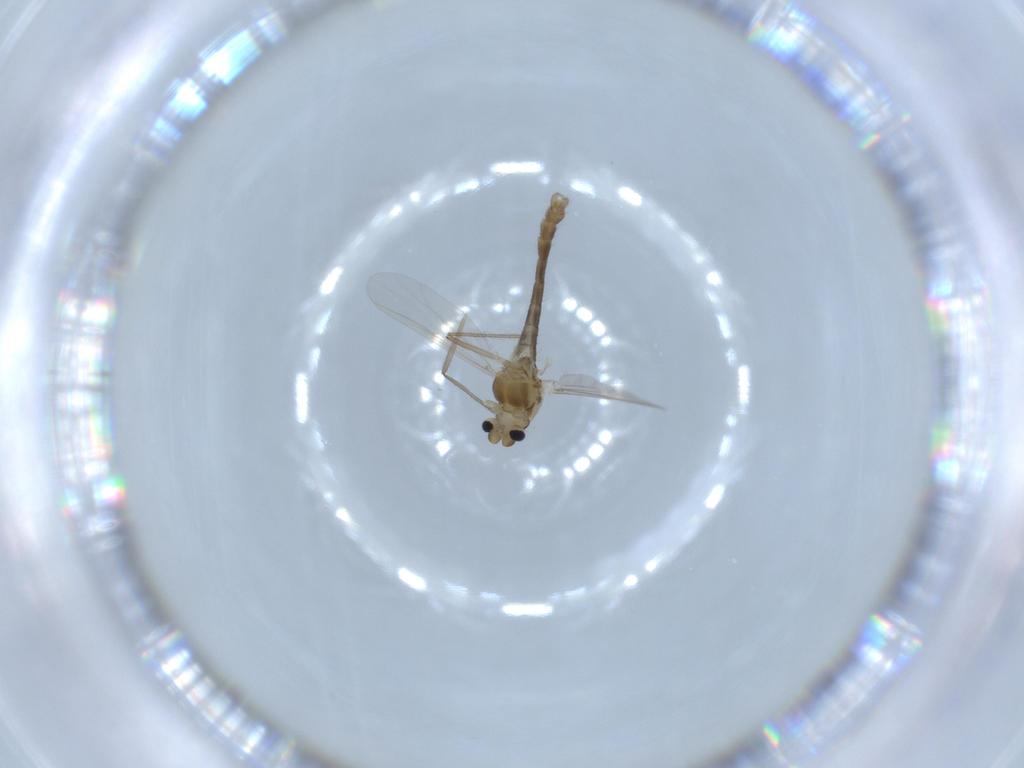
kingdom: Animalia
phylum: Arthropoda
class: Insecta
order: Diptera
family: Chironomidae
